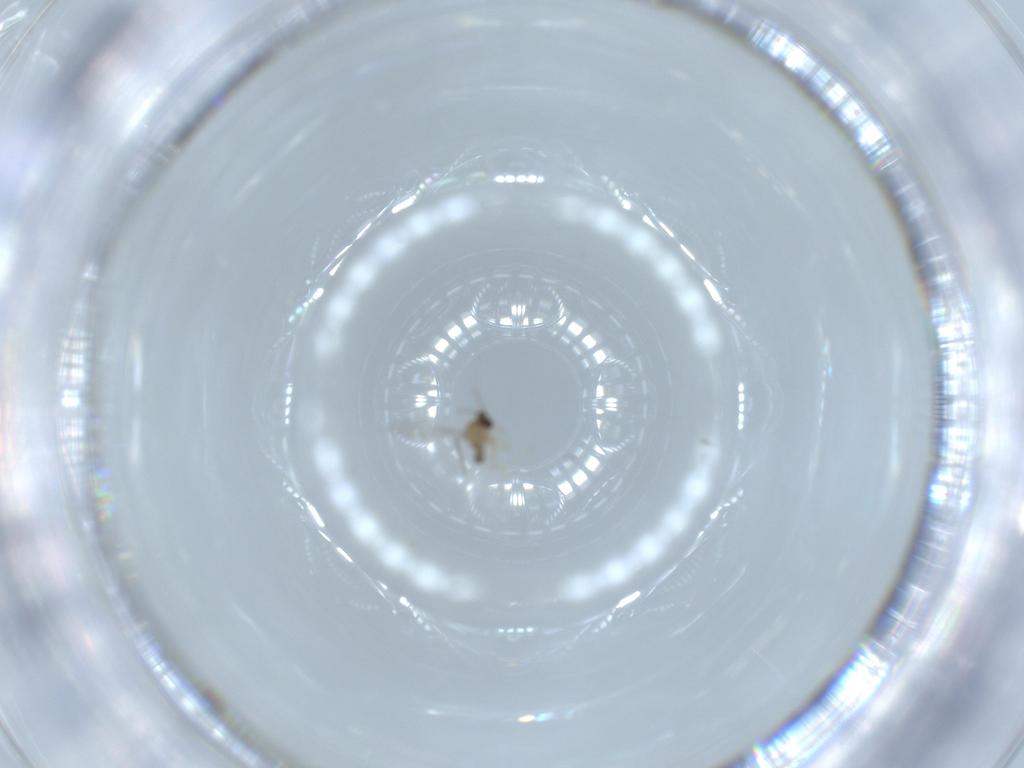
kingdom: Animalia
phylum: Arthropoda
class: Insecta
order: Diptera
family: Cecidomyiidae
